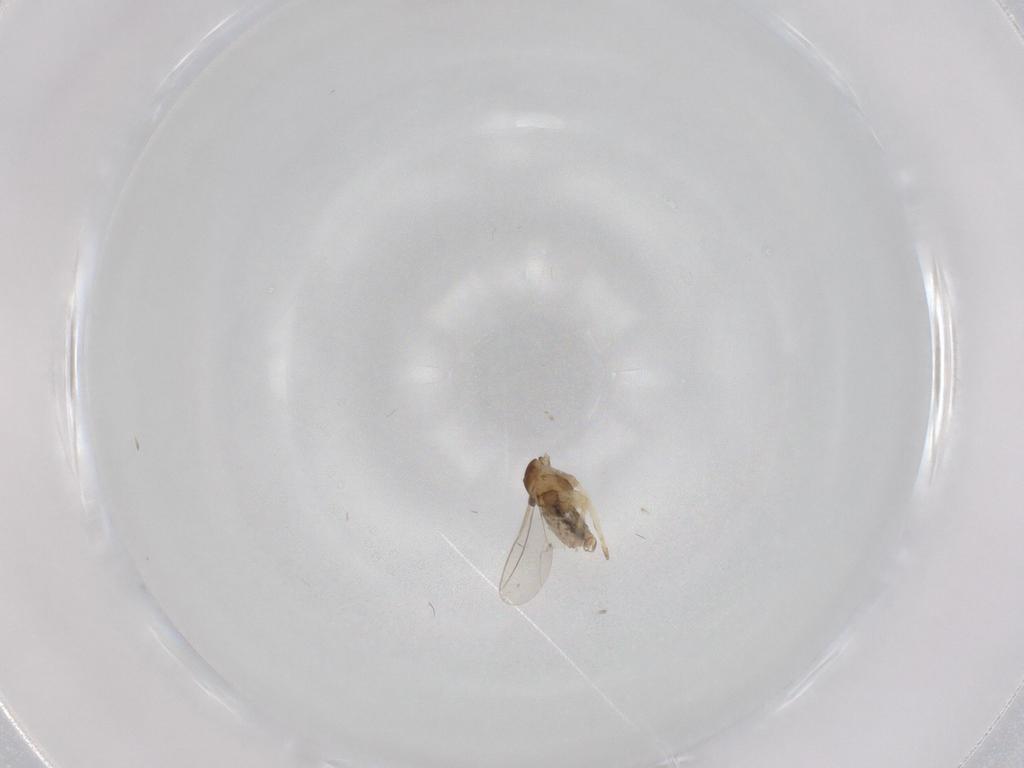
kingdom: Animalia
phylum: Arthropoda
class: Insecta
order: Diptera
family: Cecidomyiidae
